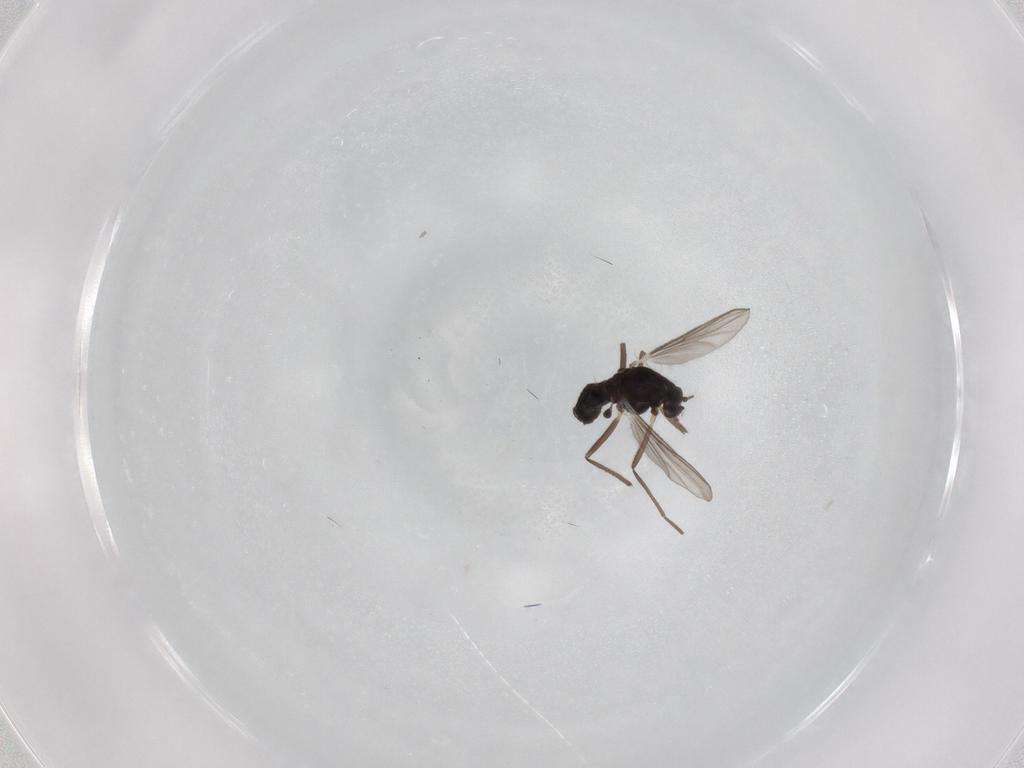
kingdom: Animalia
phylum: Arthropoda
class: Insecta
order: Diptera
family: Chironomidae
